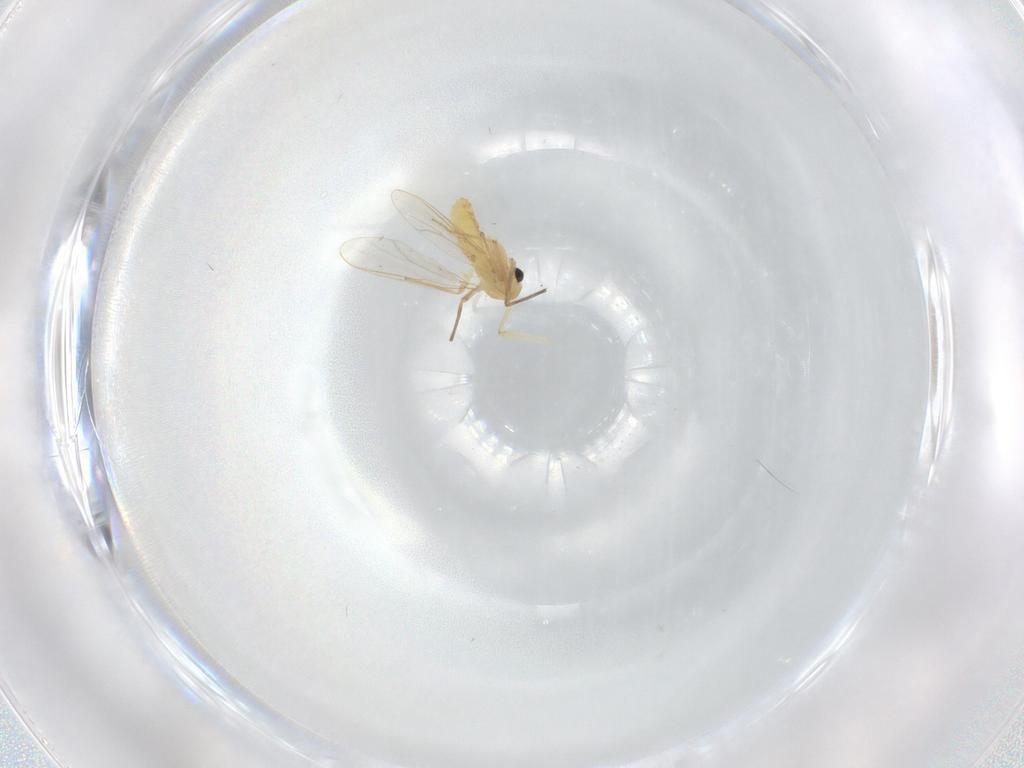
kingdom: Animalia
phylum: Arthropoda
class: Insecta
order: Diptera
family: Chironomidae
